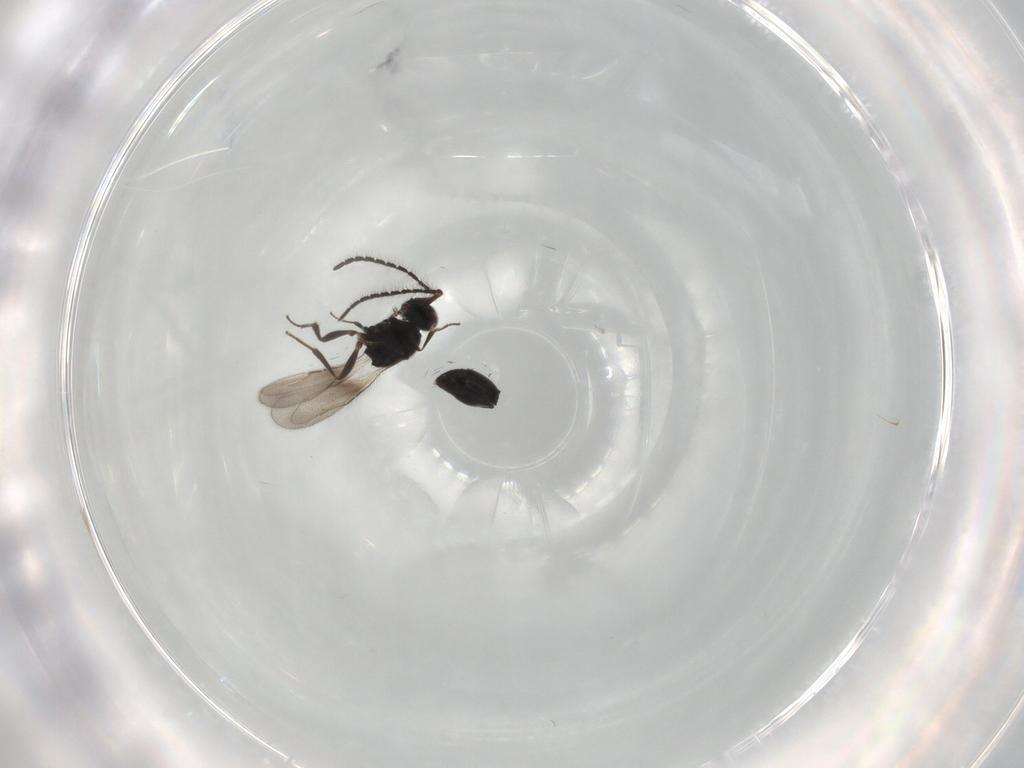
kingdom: Animalia
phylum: Arthropoda
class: Insecta
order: Hymenoptera
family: Ceraphronidae
